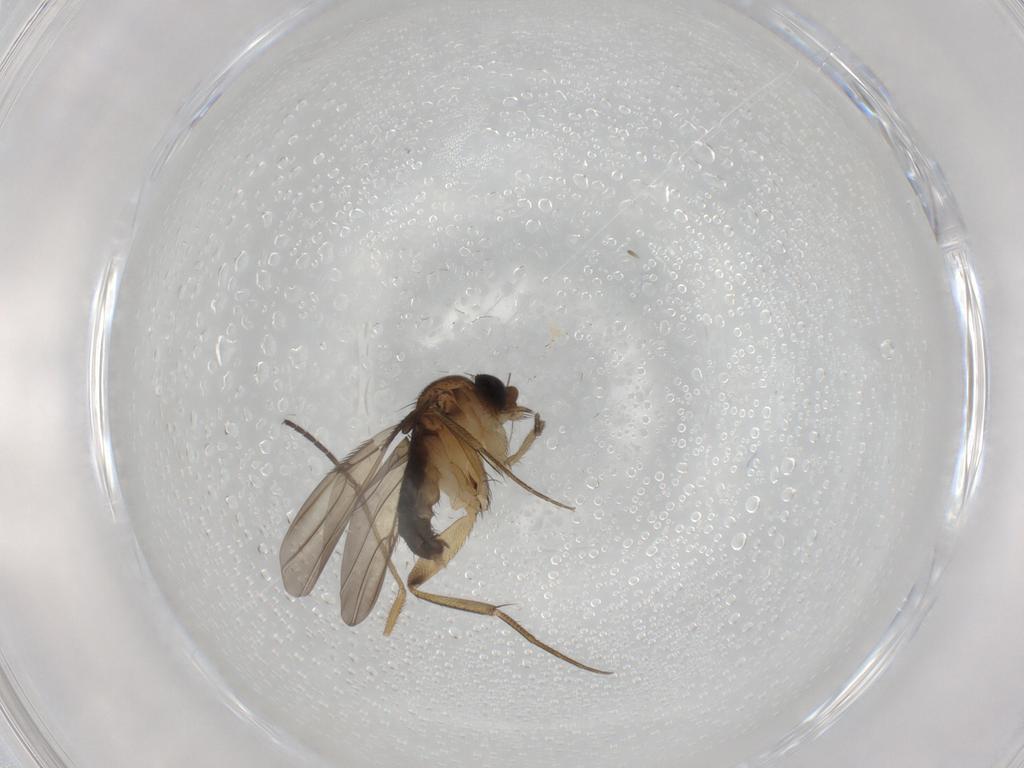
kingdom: Animalia
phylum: Arthropoda
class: Insecta
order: Diptera
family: Phoridae
